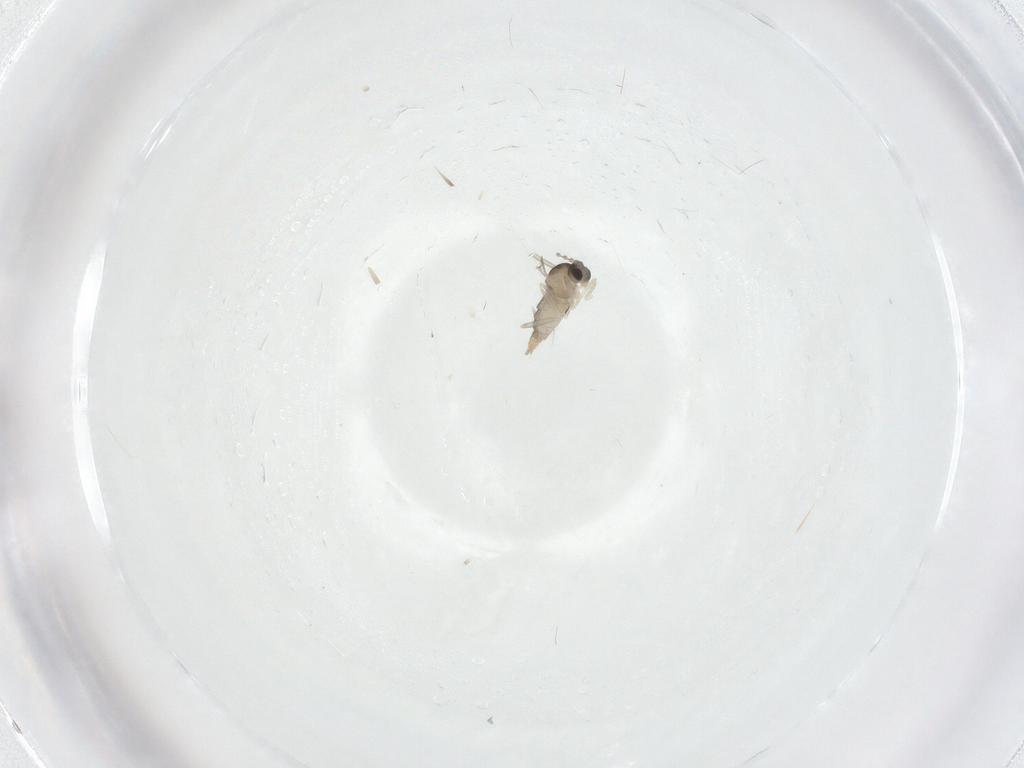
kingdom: Animalia
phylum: Arthropoda
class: Insecta
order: Diptera
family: Cecidomyiidae
